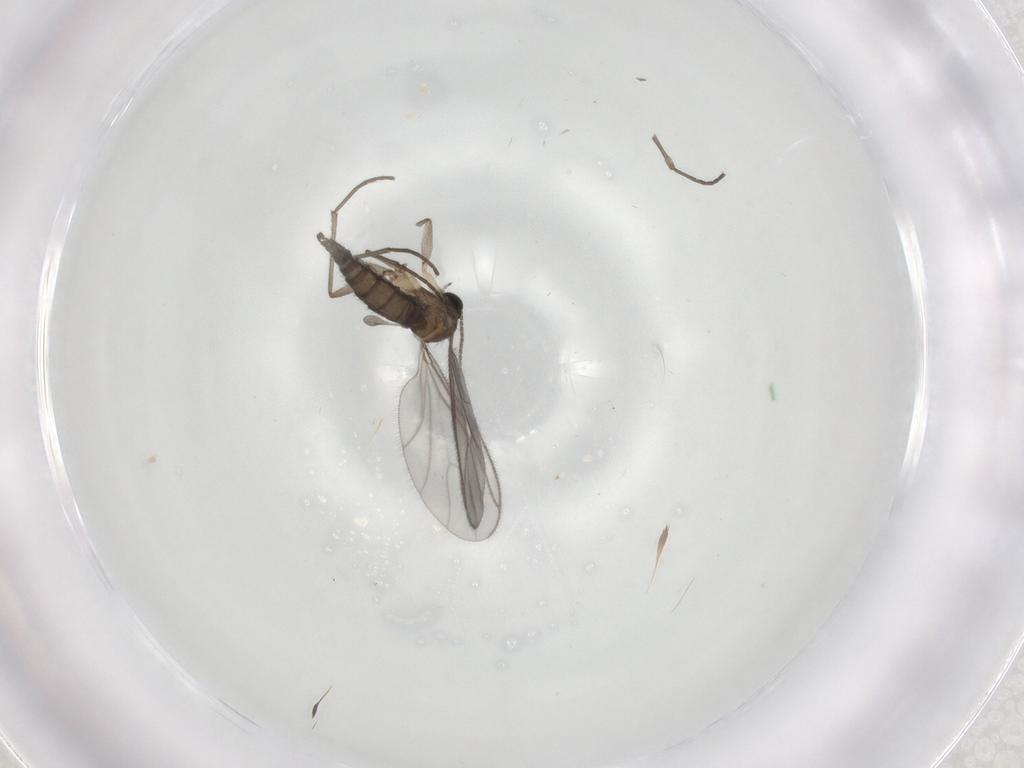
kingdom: Animalia
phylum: Arthropoda
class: Insecta
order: Diptera
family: Sciaridae
